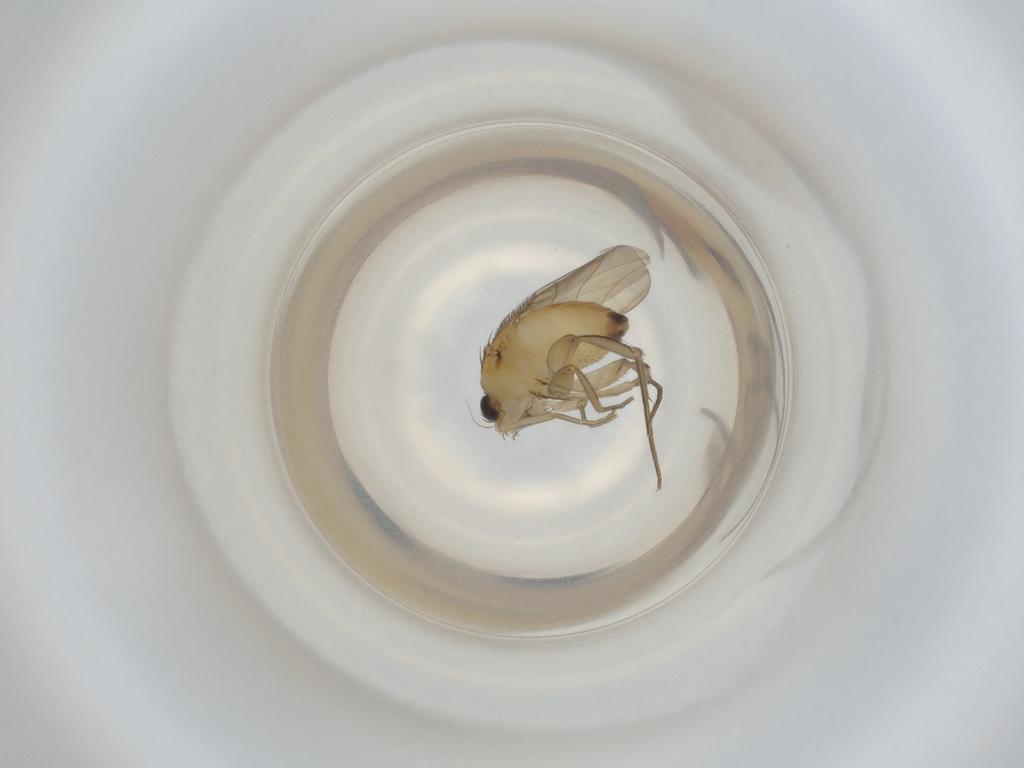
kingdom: Animalia
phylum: Arthropoda
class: Insecta
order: Diptera
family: Phoridae
